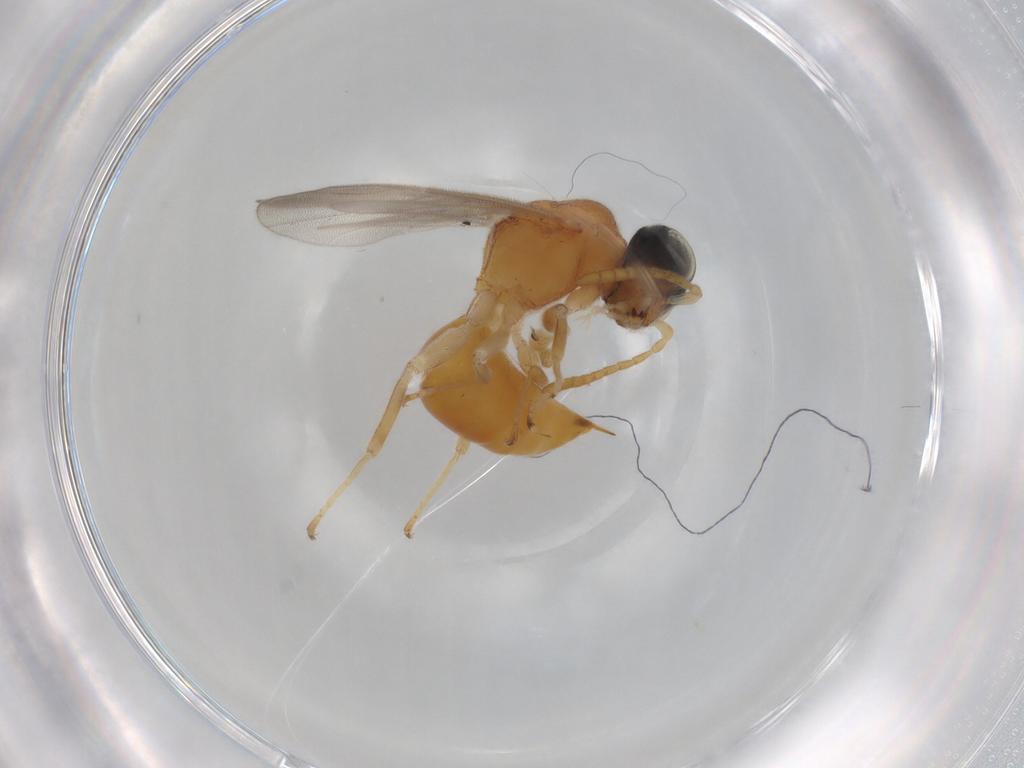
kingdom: Animalia
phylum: Arthropoda
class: Insecta
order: Hymenoptera
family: Dryinidae
